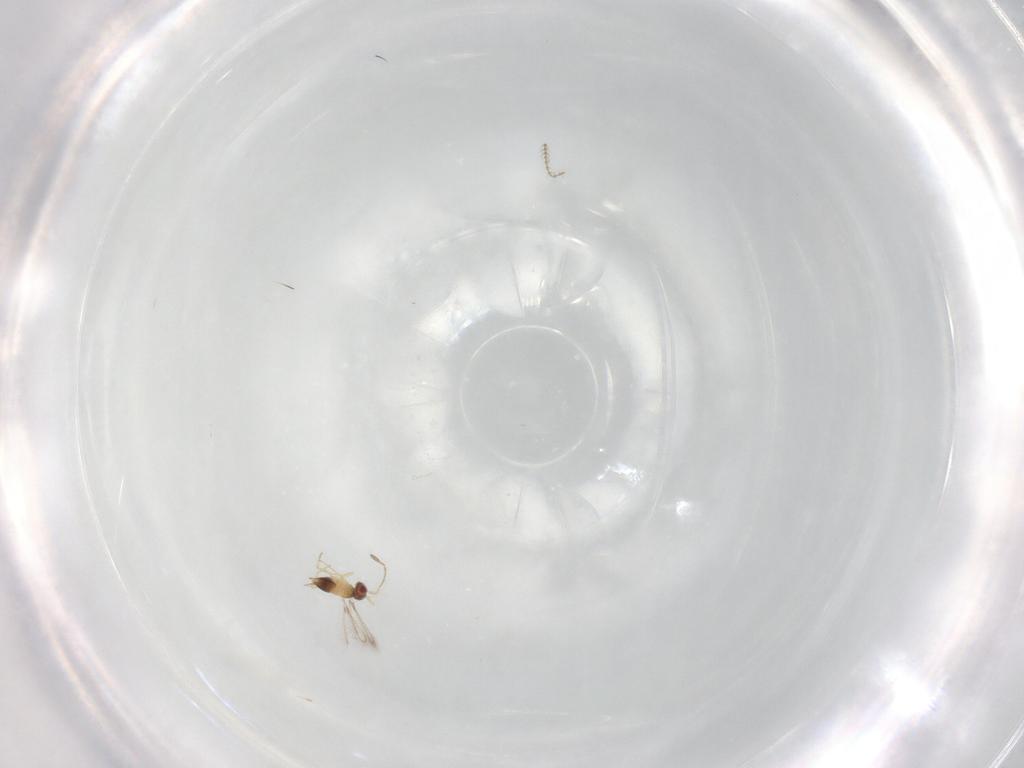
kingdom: Animalia
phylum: Arthropoda
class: Insecta
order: Hymenoptera
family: Mymaridae
